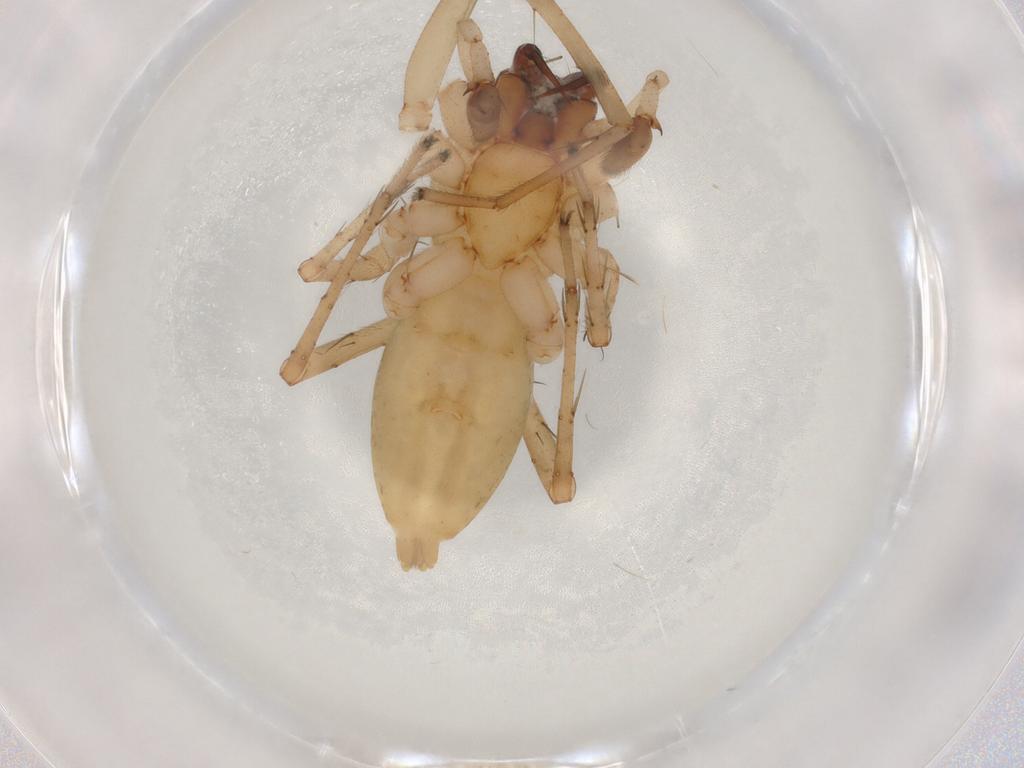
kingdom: Animalia
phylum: Arthropoda
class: Arachnida
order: Araneae
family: Anyphaenidae
